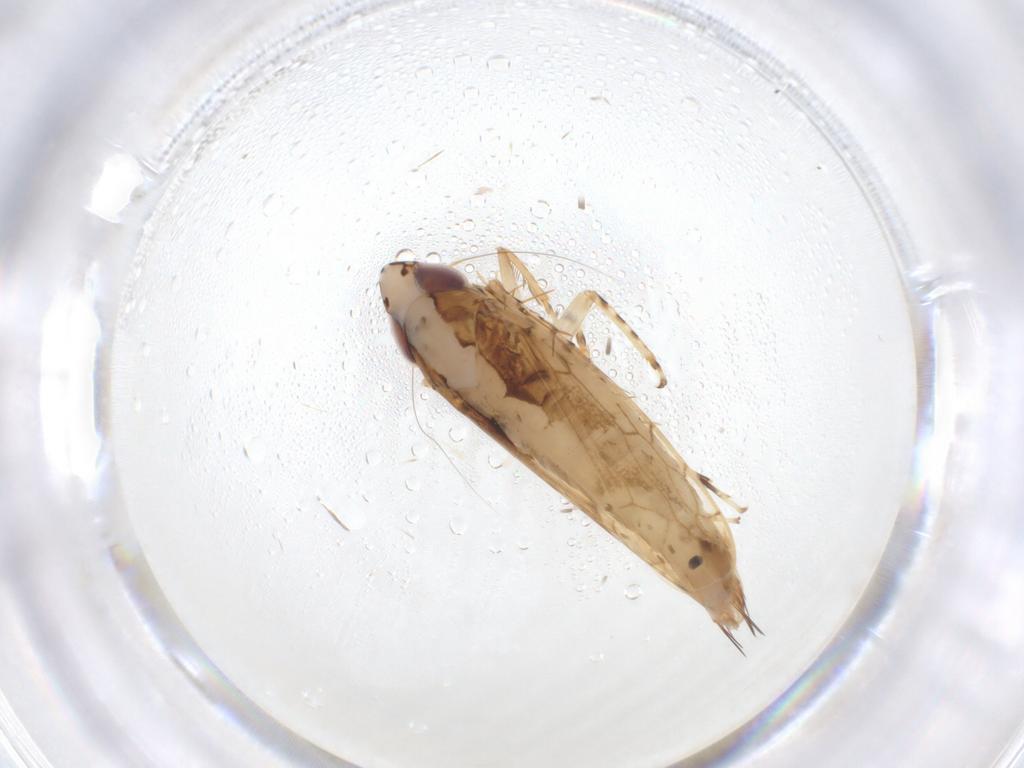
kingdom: Animalia
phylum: Arthropoda
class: Insecta
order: Hemiptera
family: Cicadellidae
